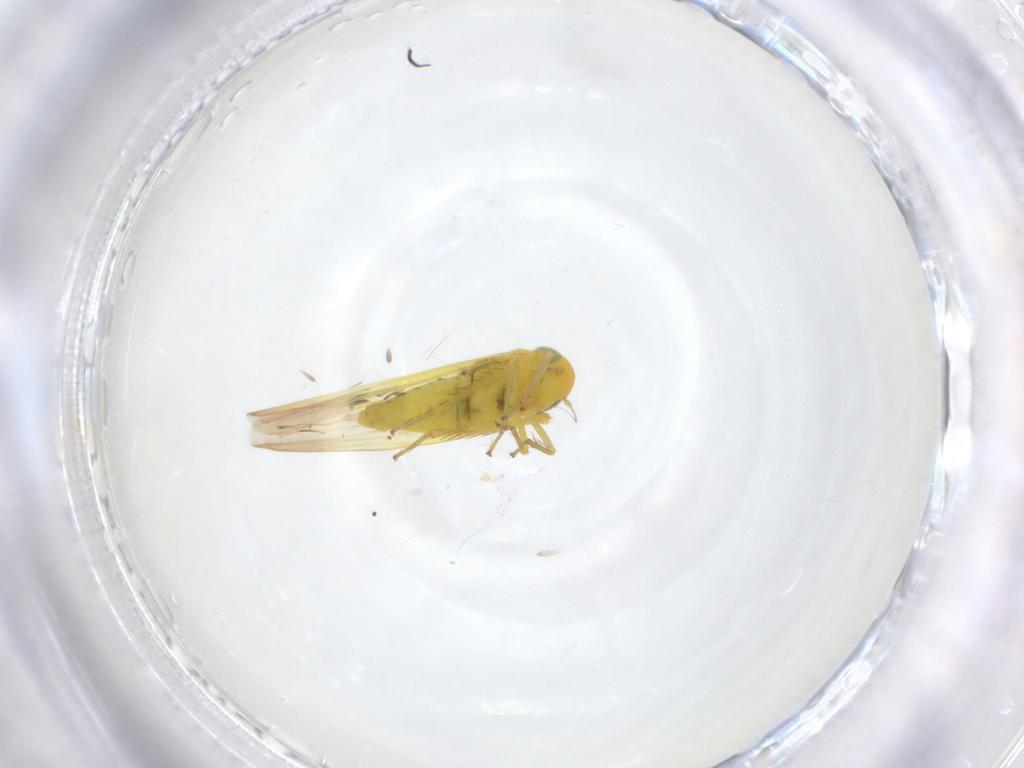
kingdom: Animalia
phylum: Arthropoda
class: Insecta
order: Hemiptera
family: Cicadellidae
